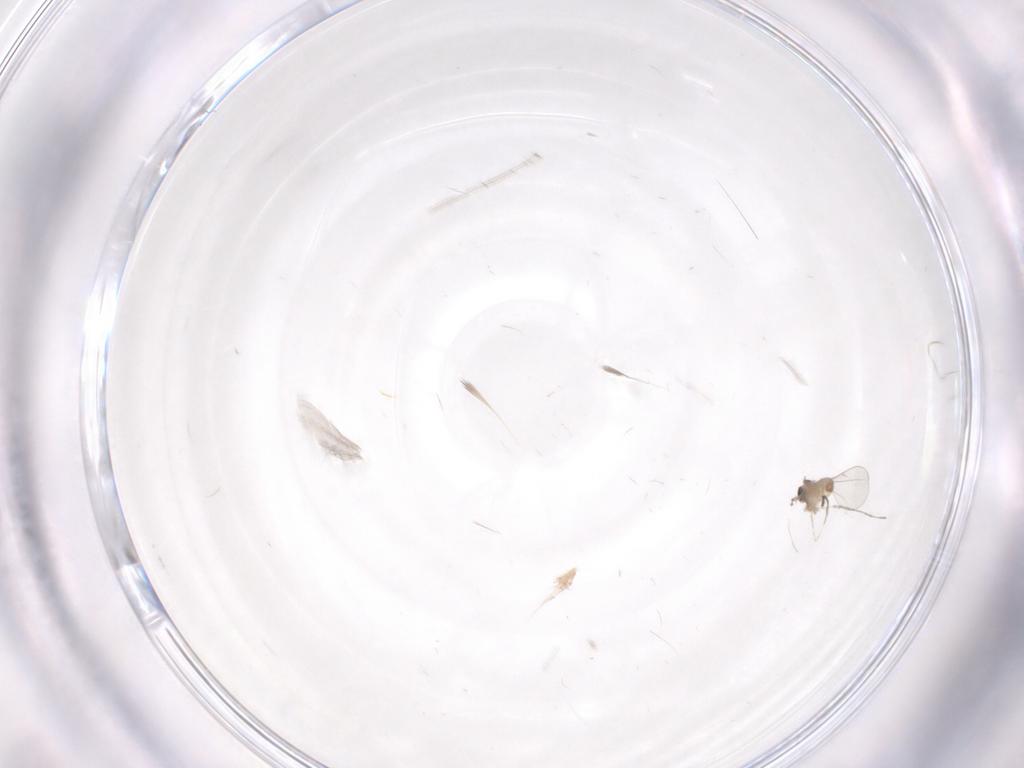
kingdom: Animalia
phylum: Arthropoda
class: Insecta
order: Diptera
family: Cecidomyiidae
